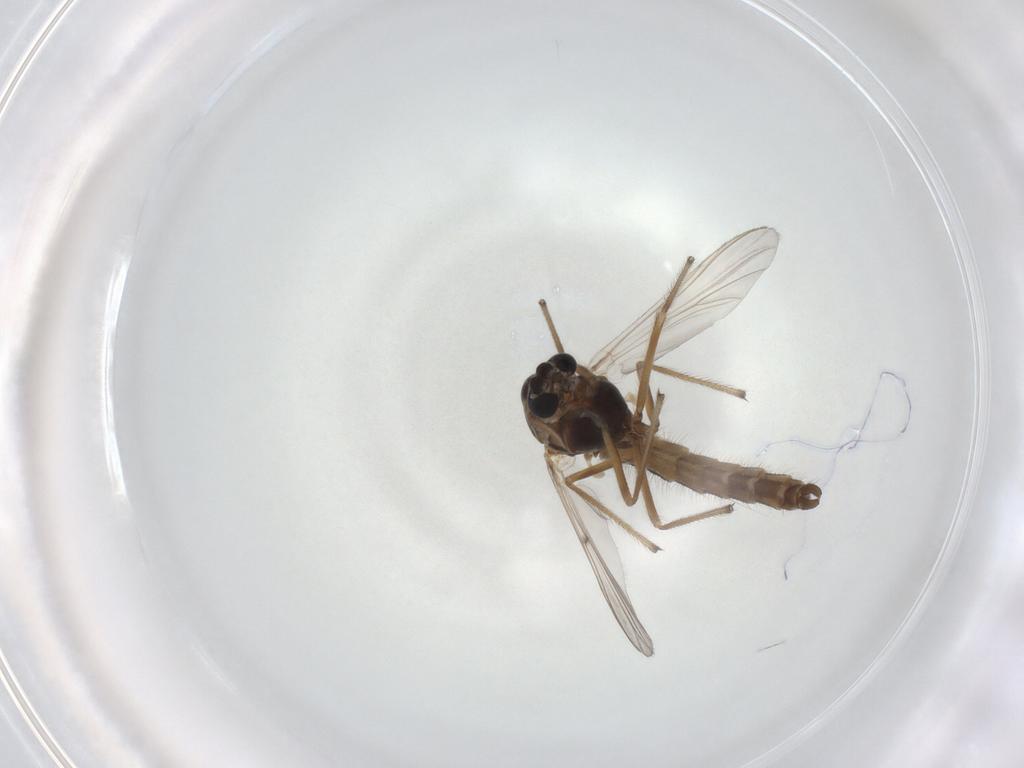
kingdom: Animalia
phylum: Arthropoda
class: Insecta
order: Diptera
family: Chironomidae
